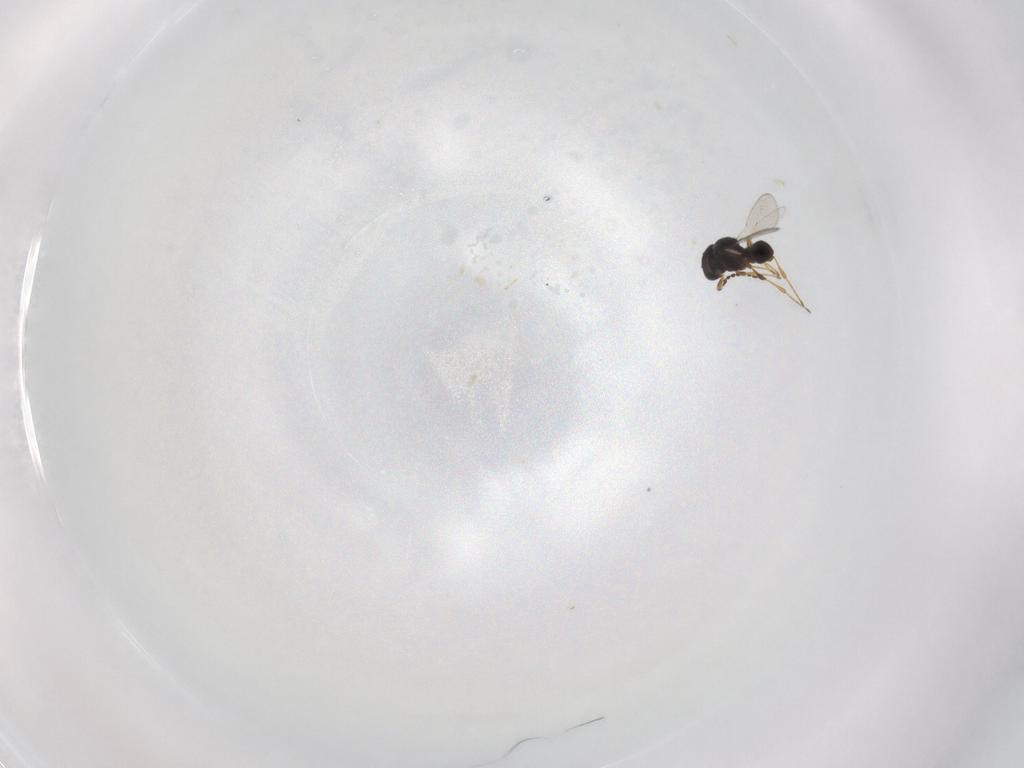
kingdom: Animalia
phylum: Arthropoda
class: Insecta
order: Hymenoptera
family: Platygastridae
